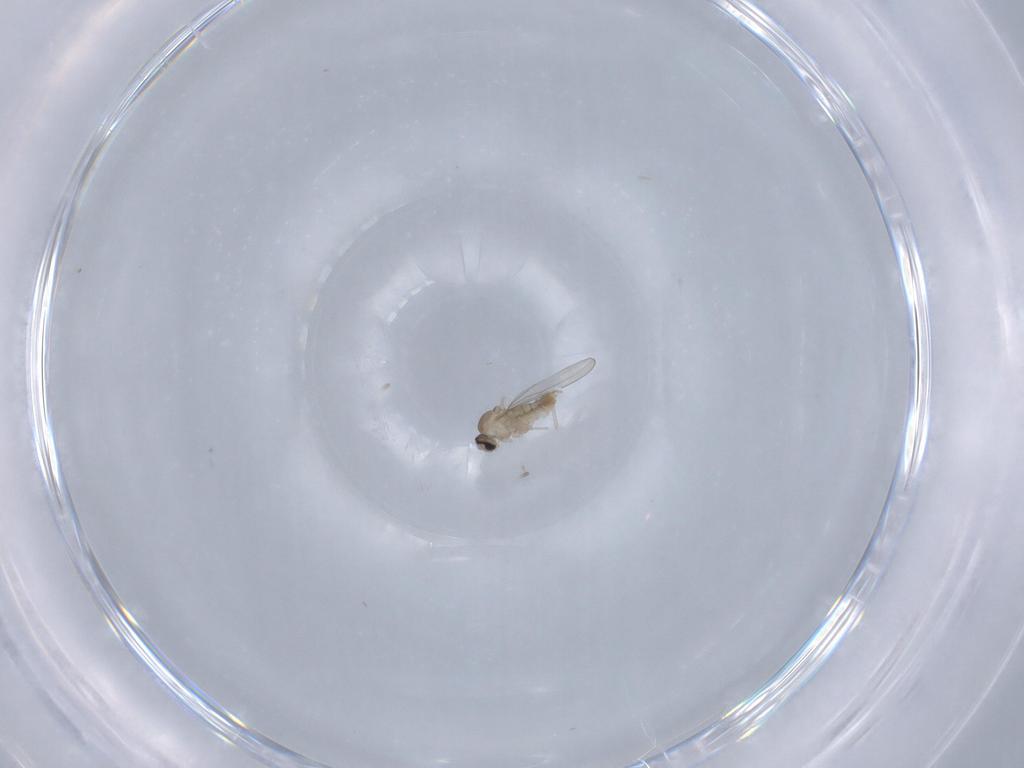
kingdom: Animalia
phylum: Arthropoda
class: Insecta
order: Diptera
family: Cecidomyiidae
